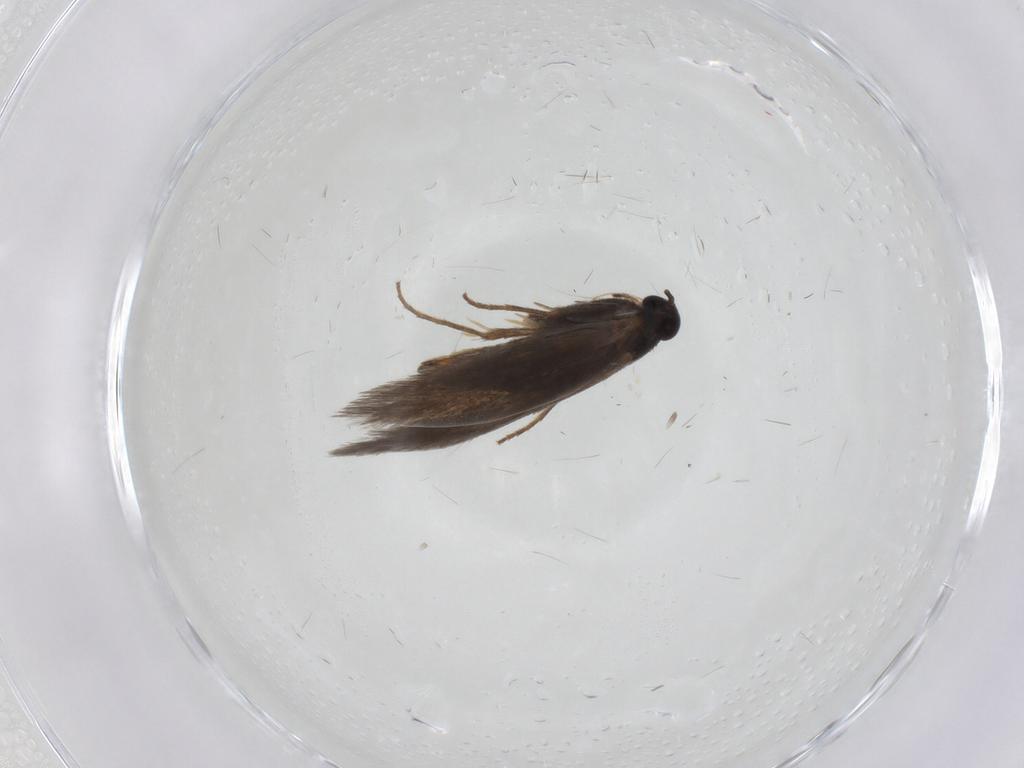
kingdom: Animalia
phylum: Arthropoda
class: Insecta
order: Lepidoptera
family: Heliozelidae
